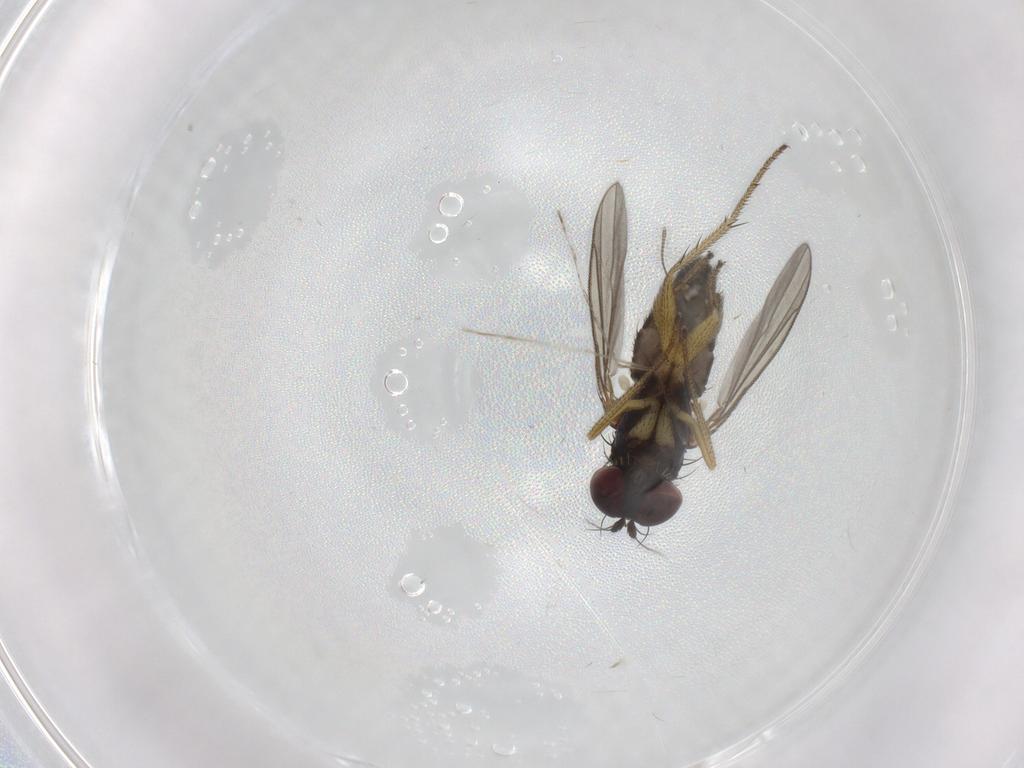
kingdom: Animalia
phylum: Arthropoda
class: Insecta
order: Diptera
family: Chironomidae
